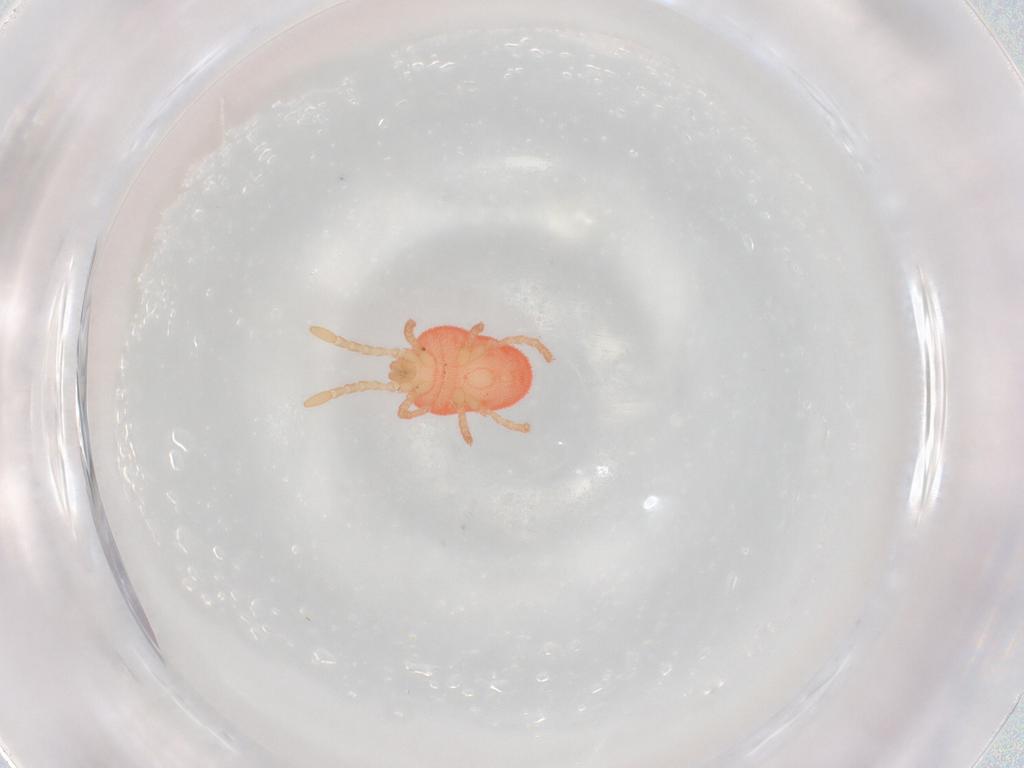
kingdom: Animalia
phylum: Arthropoda
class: Arachnida
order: Trombidiformes
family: Trombidiidae
